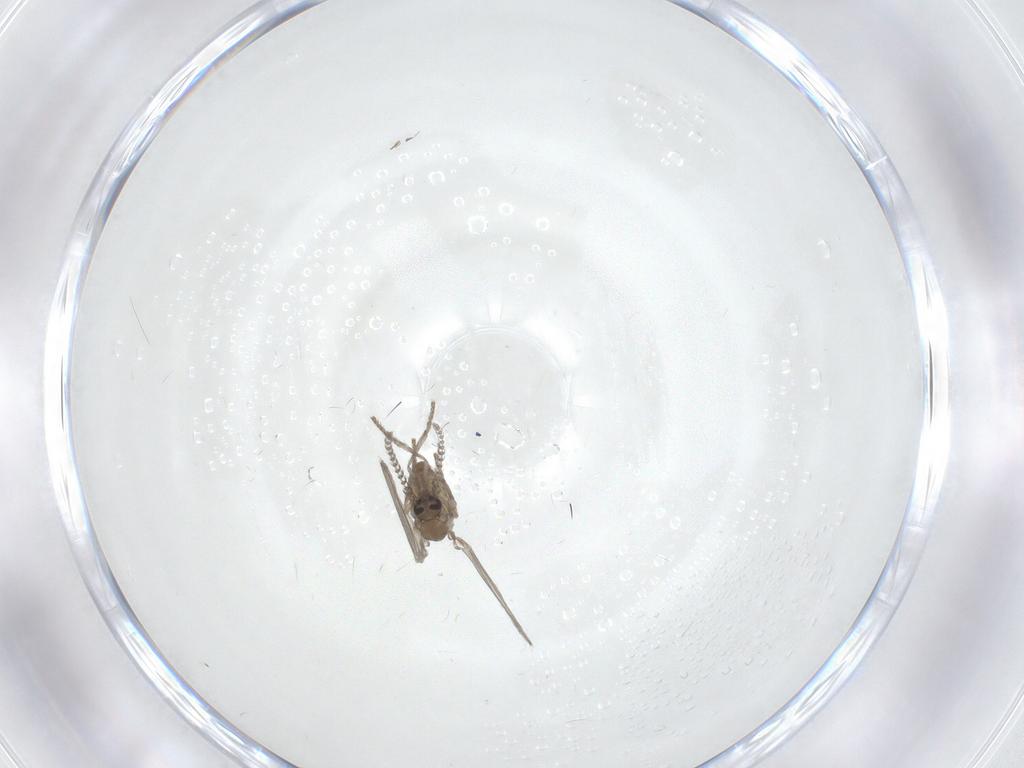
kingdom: Animalia
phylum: Arthropoda
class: Insecta
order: Diptera
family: Psychodidae
